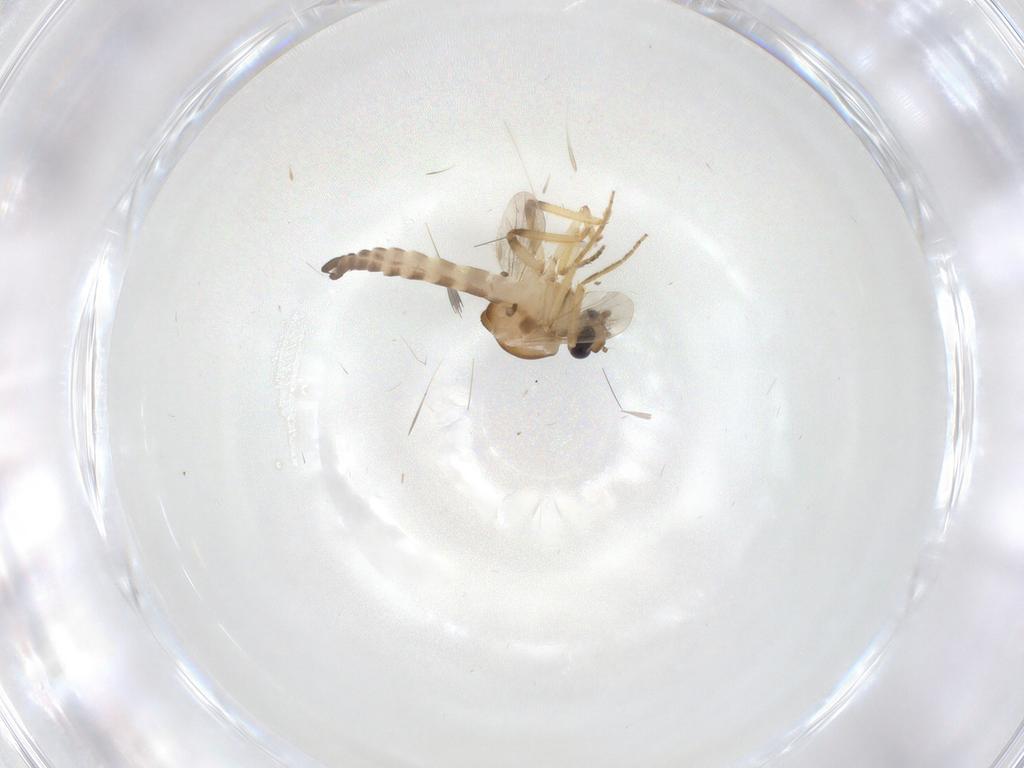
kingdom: Animalia
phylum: Arthropoda
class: Insecta
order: Diptera
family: Ceratopogonidae
